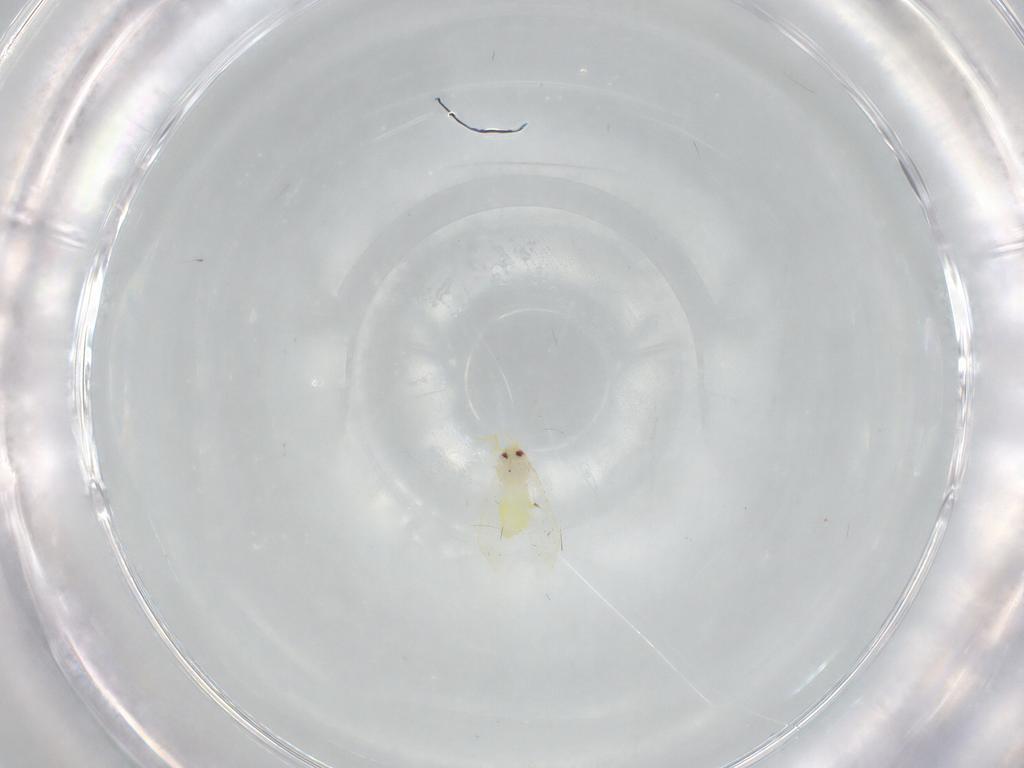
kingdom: Animalia
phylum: Arthropoda
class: Insecta
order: Hemiptera
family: Aleyrodidae
